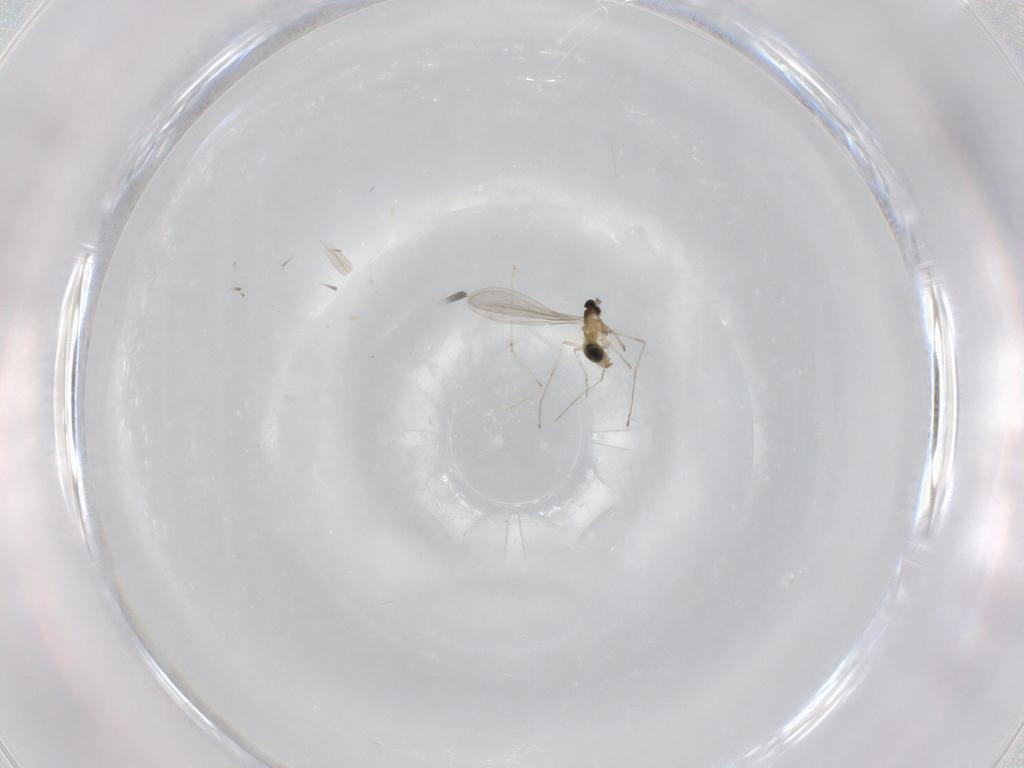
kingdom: Animalia
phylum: Arthropoda
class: Insecta
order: Diptera
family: Cecidomyiidae
